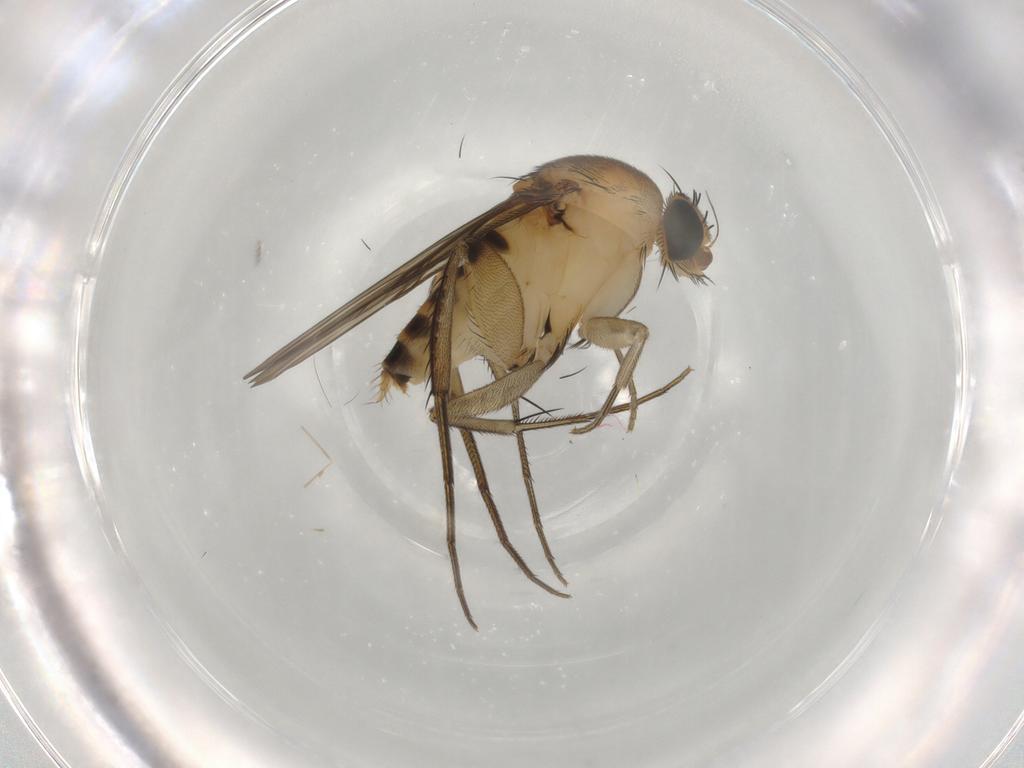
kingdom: Animalia
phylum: Arthropoda
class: Insecta
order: Diptera
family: Phoridae
